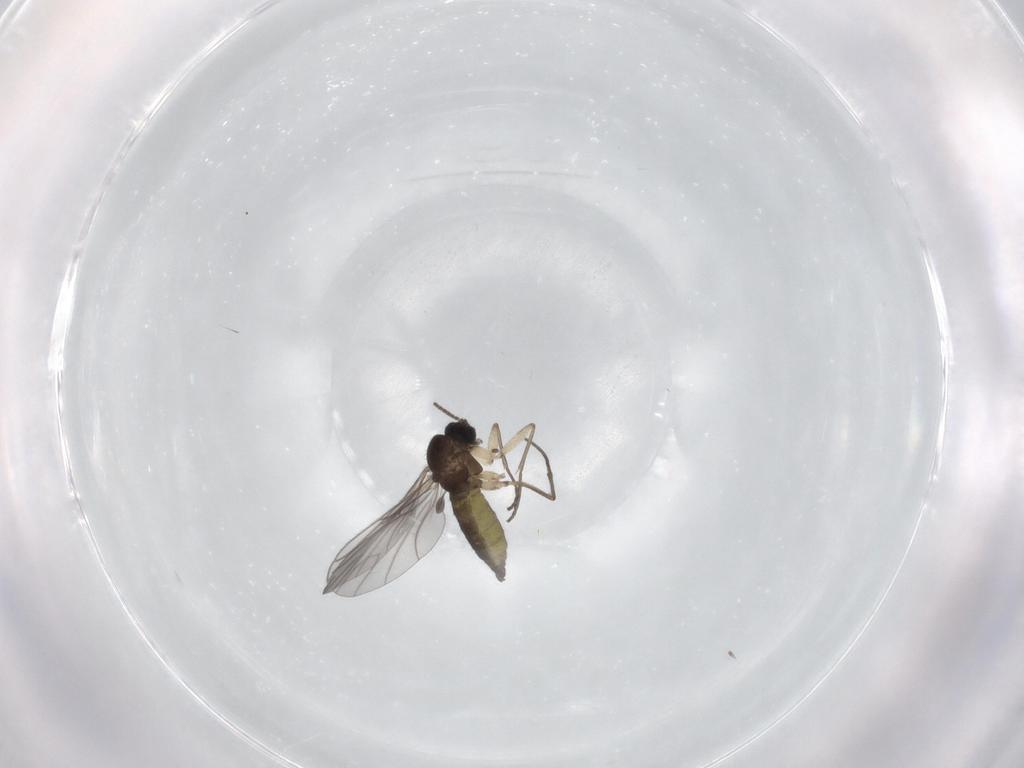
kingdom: Animalia
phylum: Arthropoda
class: Insecta
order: Diptera
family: Sciaridae
